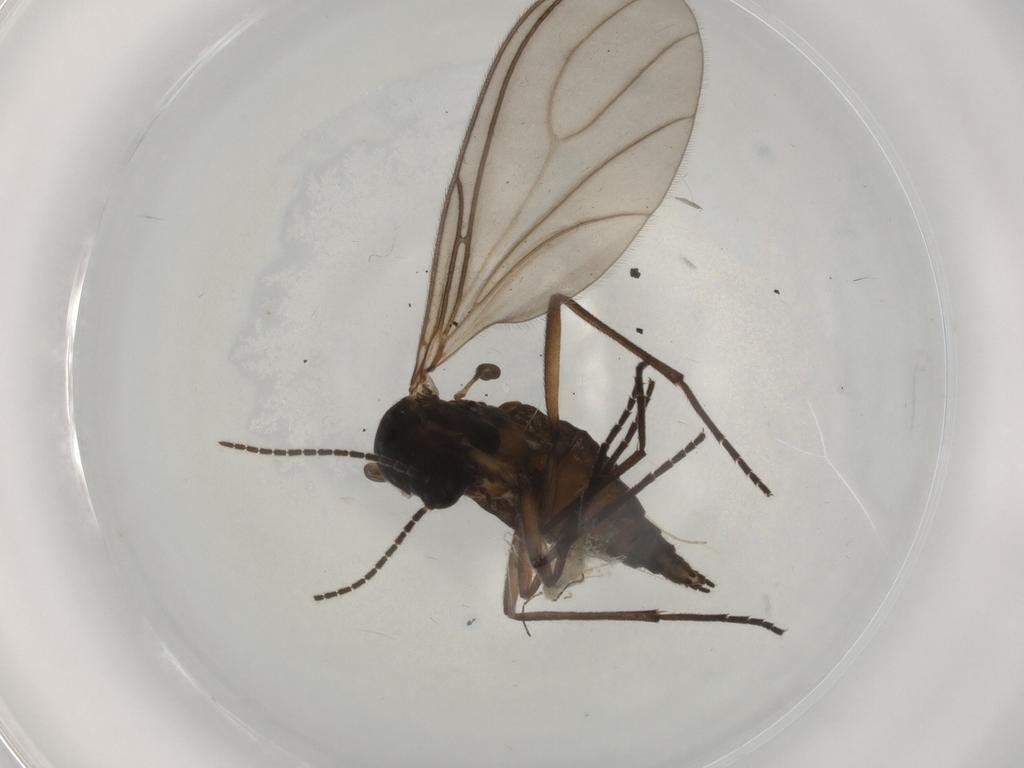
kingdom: Animalia
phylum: Arthropoda
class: Insecta
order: Diptera
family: Sciaridae
